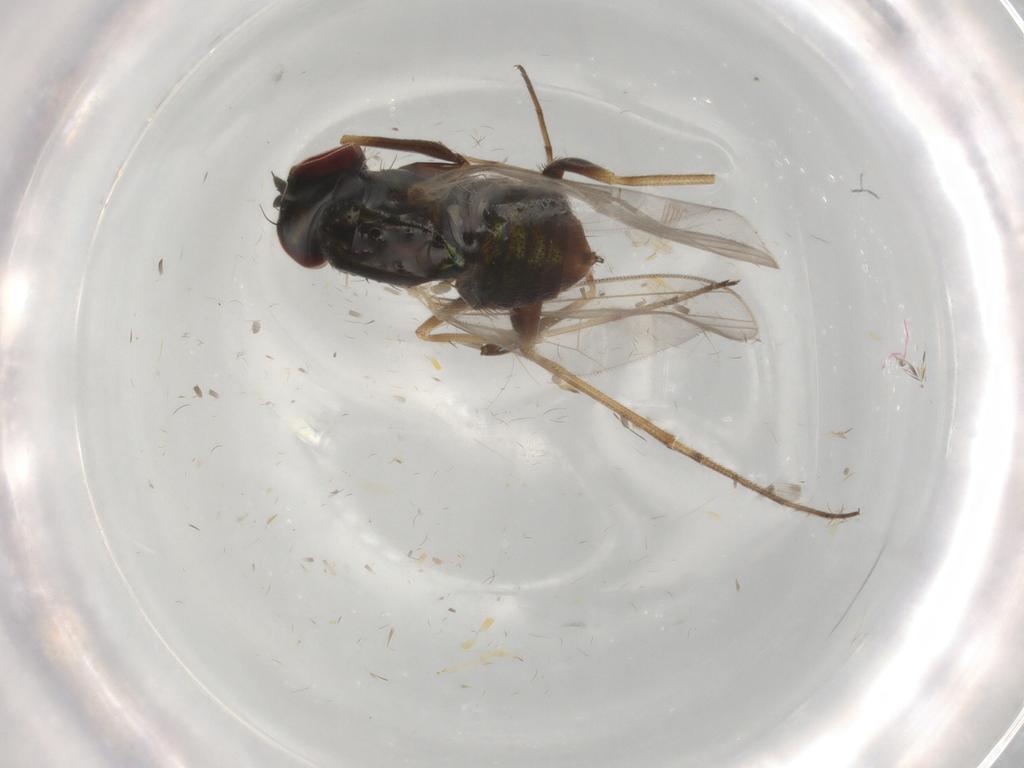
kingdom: Animalia
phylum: Arthropoda
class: Insecta
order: Diptera
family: Dolichopodidae
